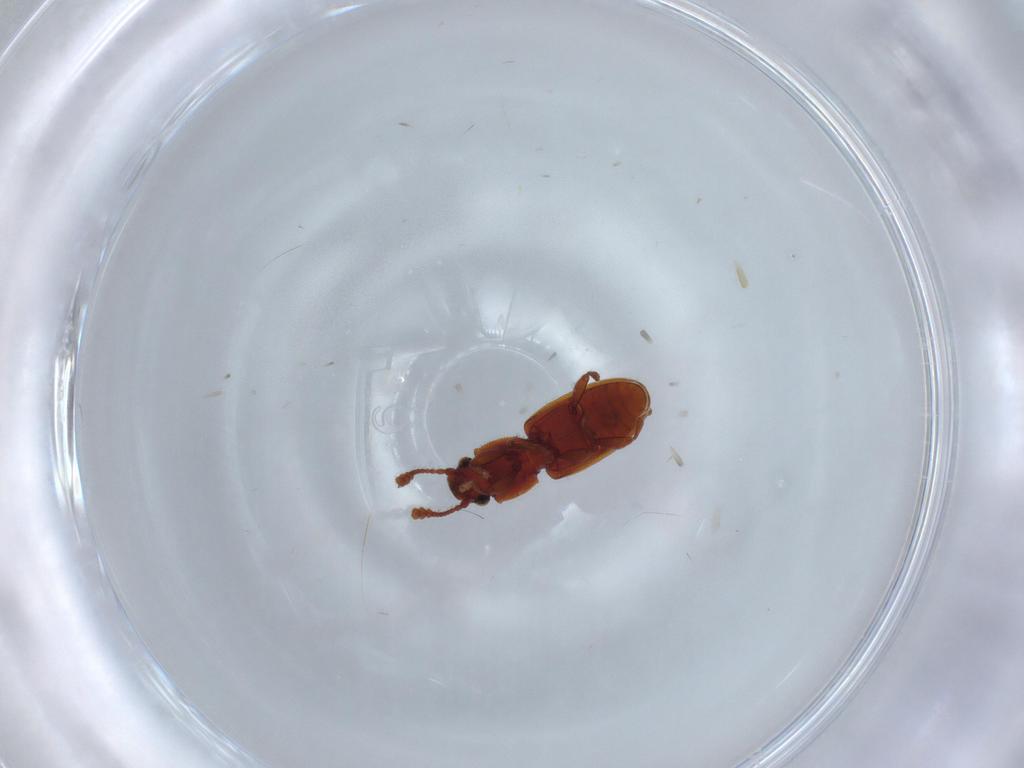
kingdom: Animalia
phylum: Arthropoda
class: Insecta
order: Coleoptera
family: Silvanidae
